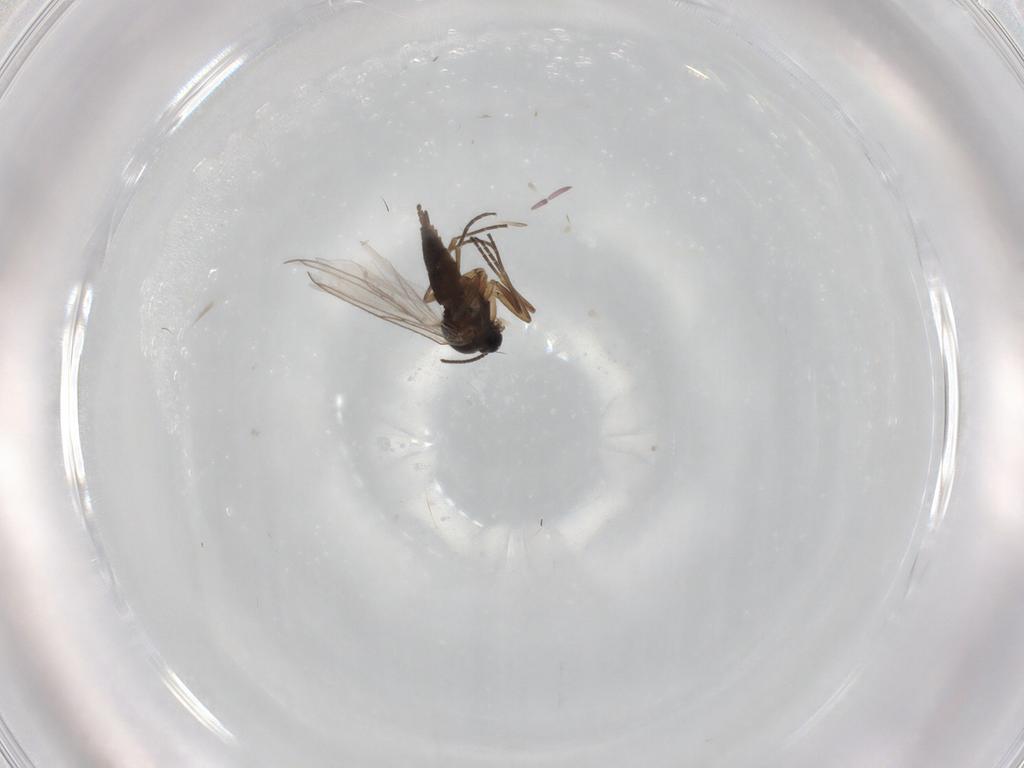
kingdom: Animalia
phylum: Arthropoda
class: Insecta
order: Diptera
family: Sciaridae
